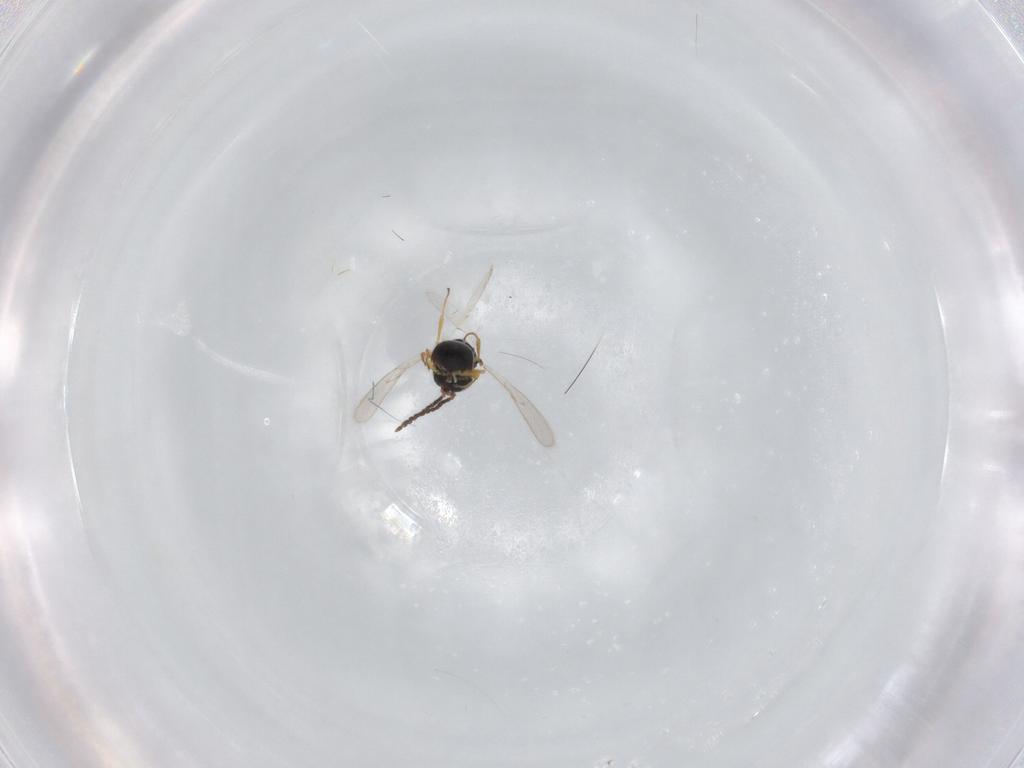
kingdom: Animalia
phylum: Arthropoda
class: Insecta
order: Hymenoptera
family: Scelionidae
